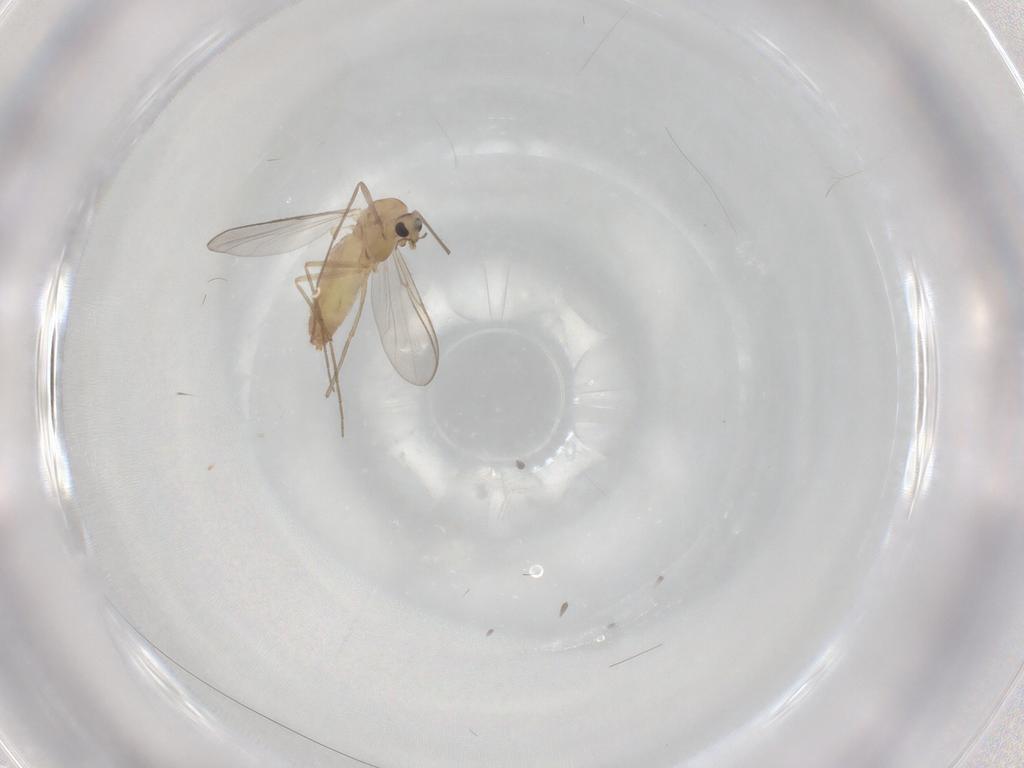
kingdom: Animalia
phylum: Arthropoda
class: Insecta
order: Diptera
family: Chironomidae
